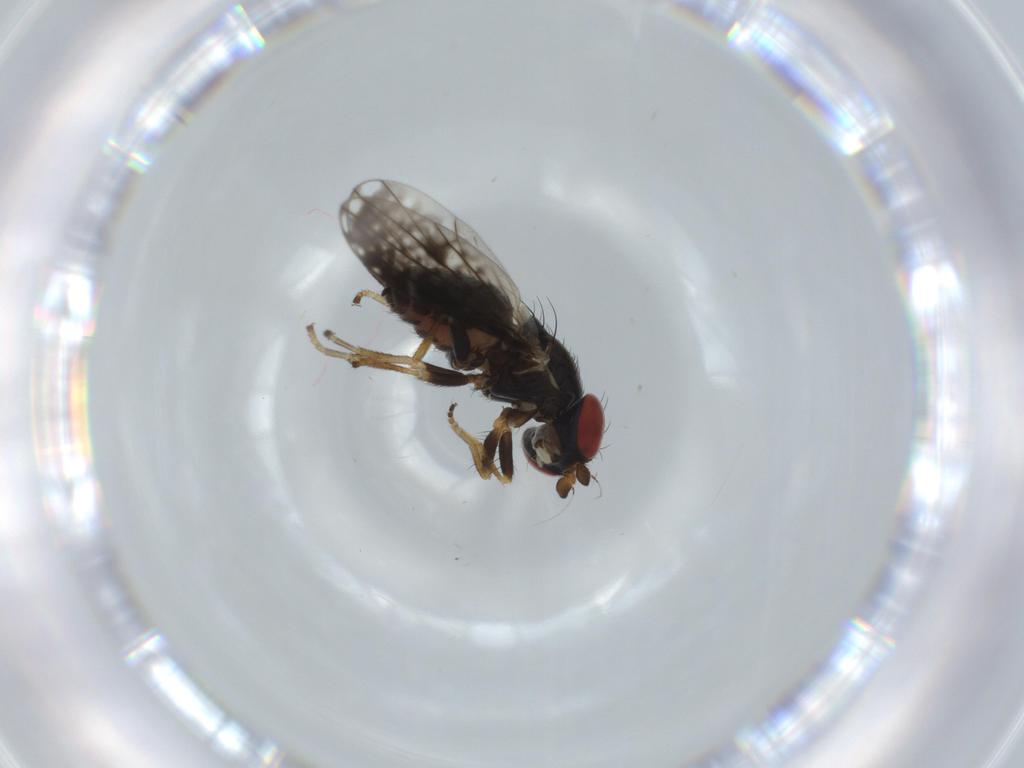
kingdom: Animalia
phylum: Arthropoda
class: Insecta
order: Diptera
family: Chamaemyiidae
